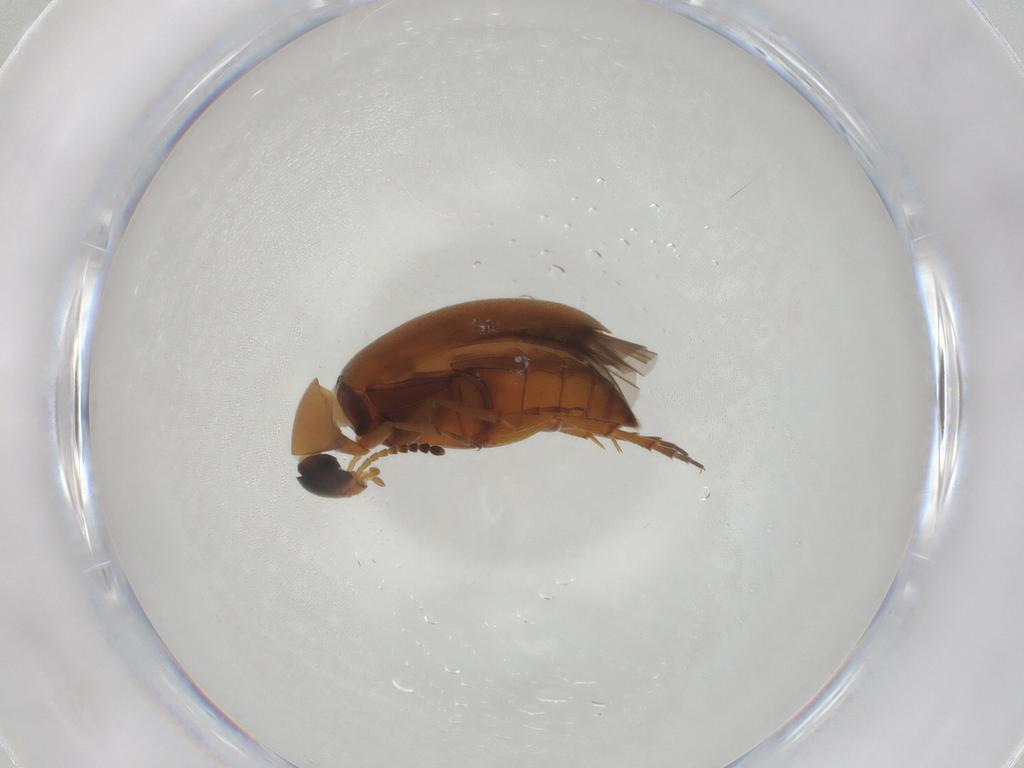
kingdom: Animalia
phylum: Arthropoda
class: Insecta
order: Coleoptera
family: Scraptiidae
